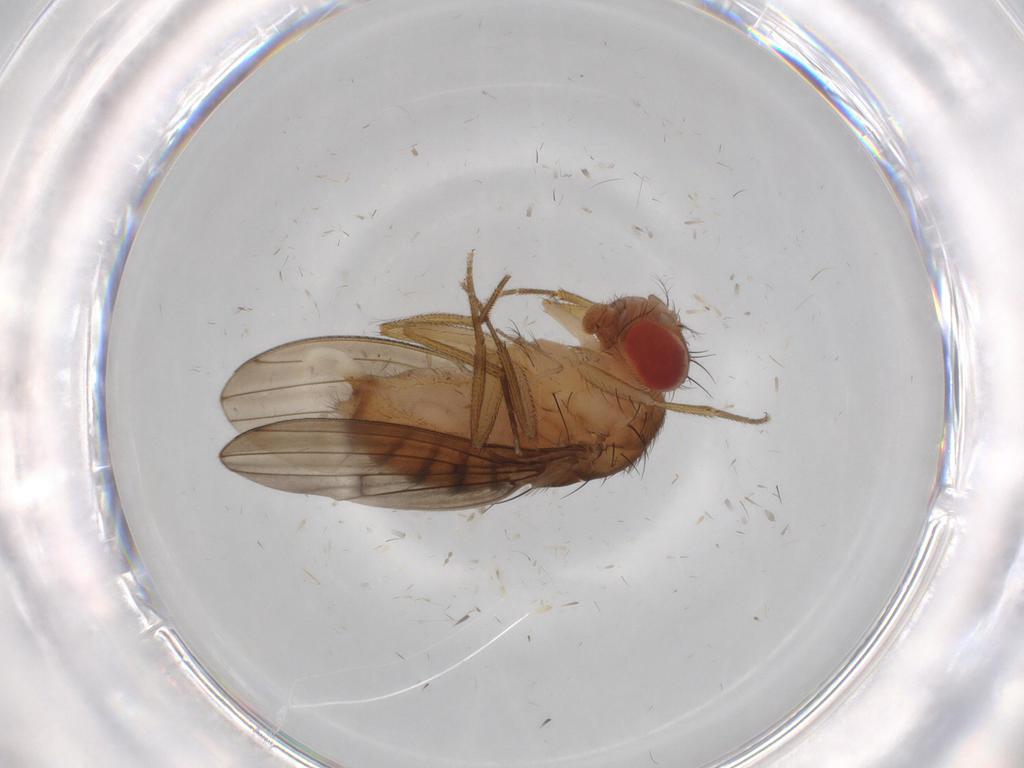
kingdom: Animalia
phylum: Arthropoda
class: Insecta
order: Diptera
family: Drosophilidae
